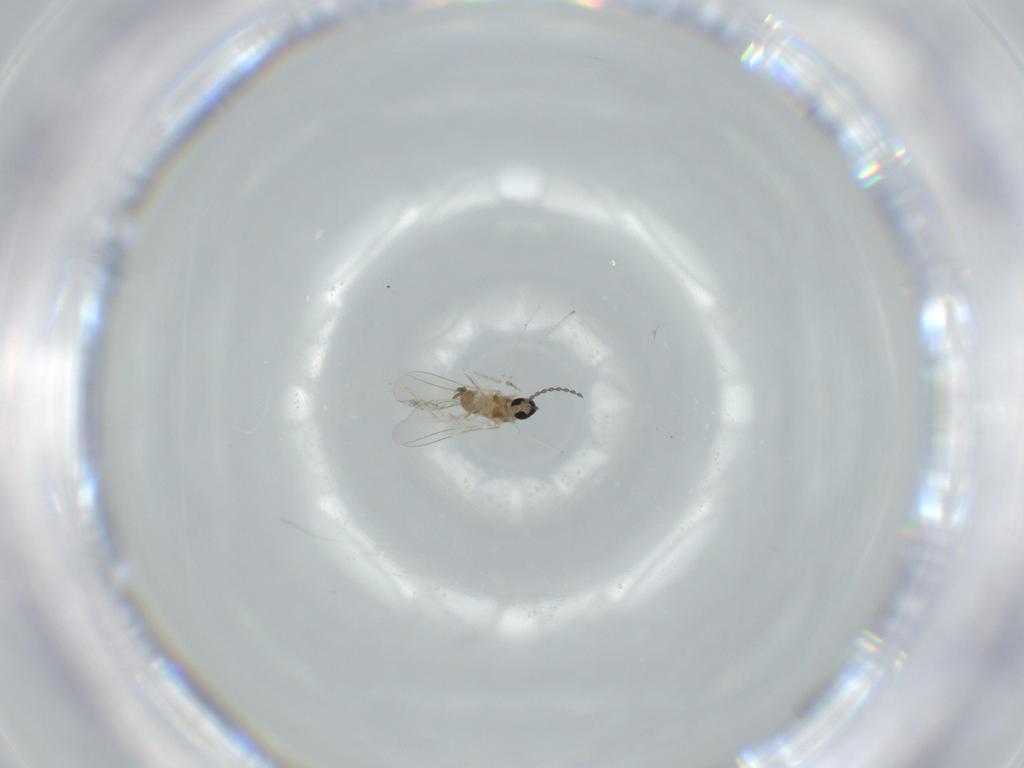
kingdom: Animalia
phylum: Arthropoda
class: Insecta
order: Diptera
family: Cecidomyiidae
